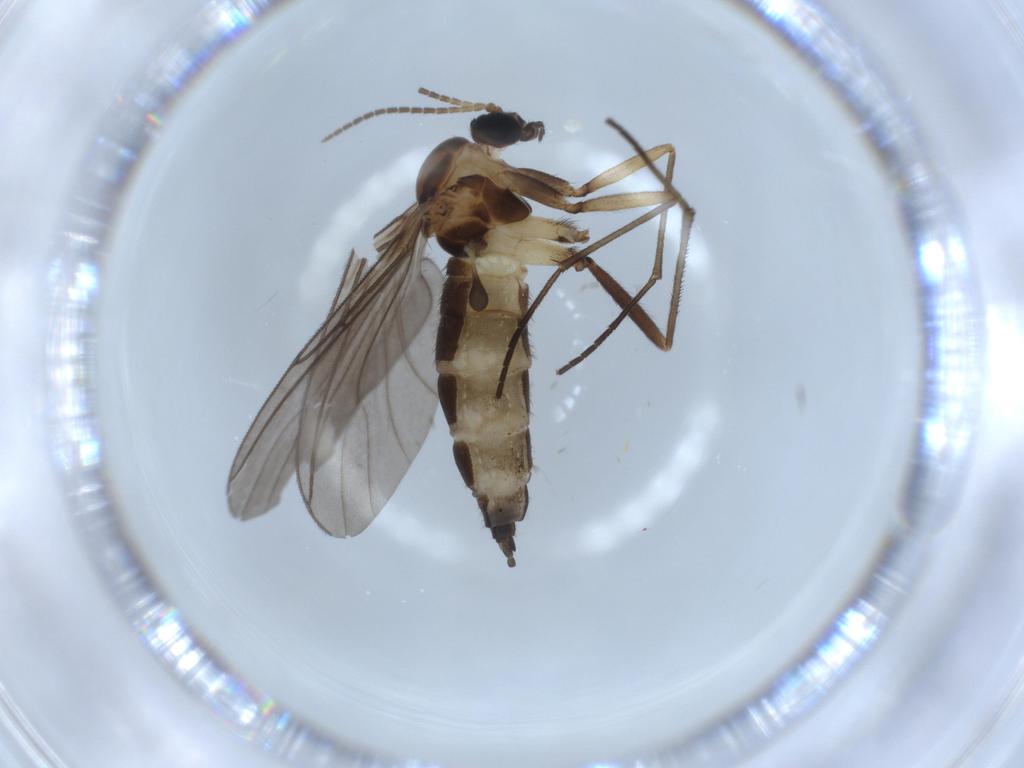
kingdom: Animalia
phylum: Arthropoda
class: Insecta
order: Diptera
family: Sciaridae
